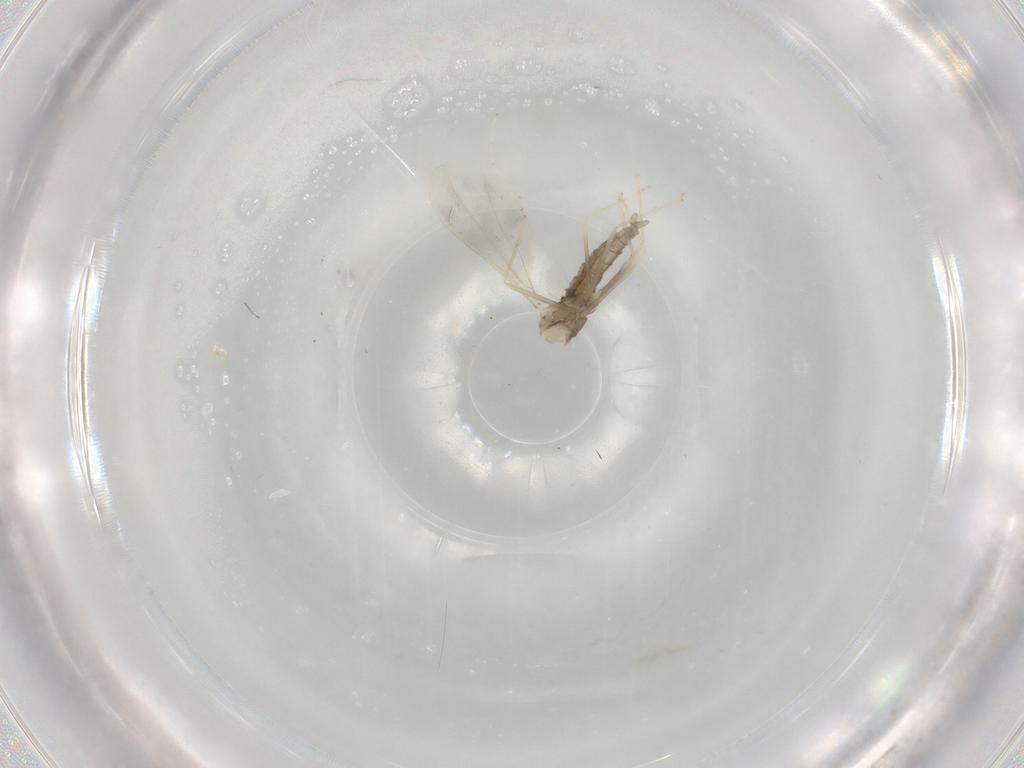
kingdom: Animalia
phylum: Arthropoda
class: Insecta
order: Diptera
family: Cecidomyiidae
